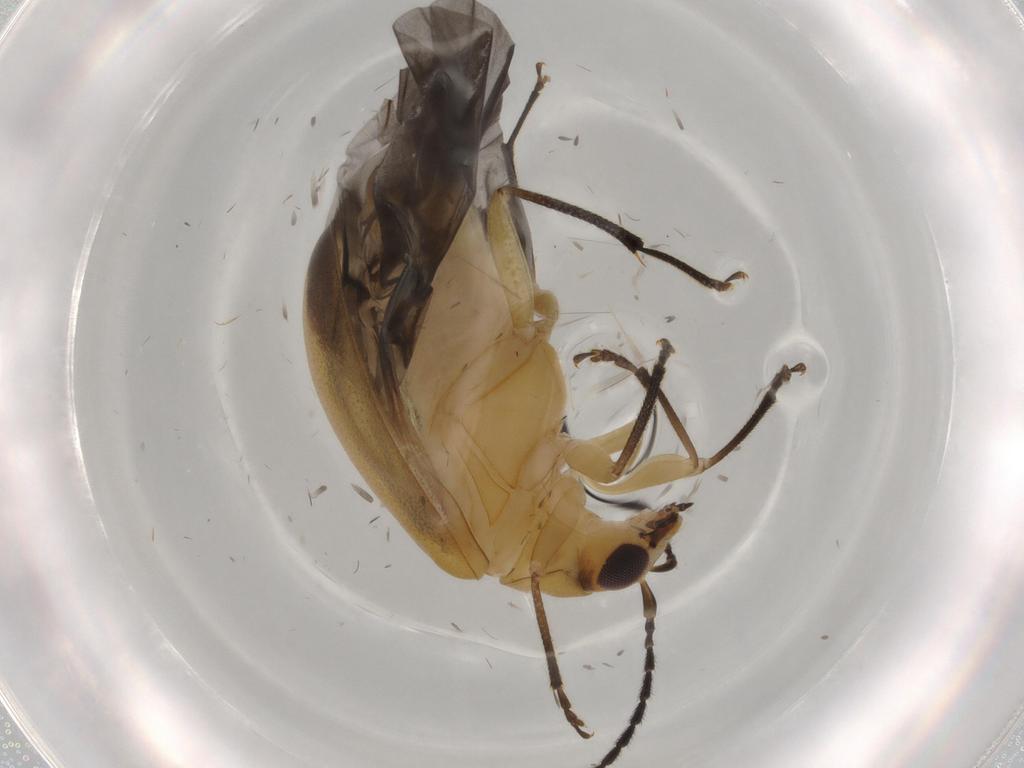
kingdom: Animalia
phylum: Arthropoda
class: Insecta
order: Coleoptera
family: Chrysomelidae
